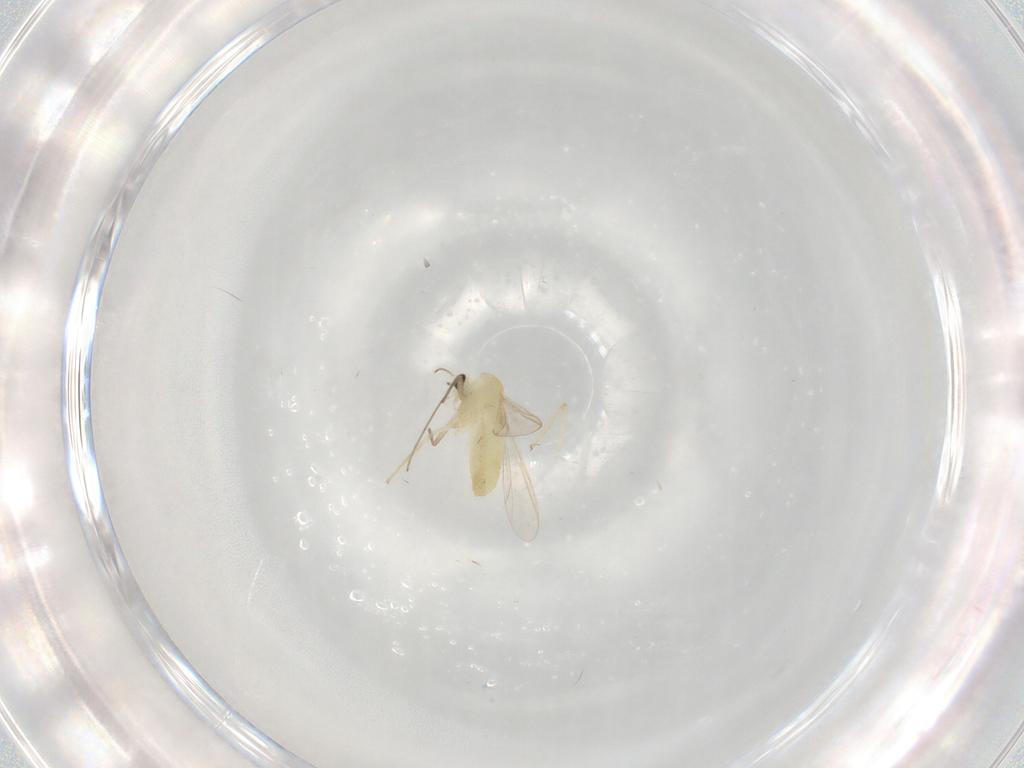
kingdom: Animalia
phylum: Arthropoda
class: Insecta
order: Diptera
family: Chironomidae
